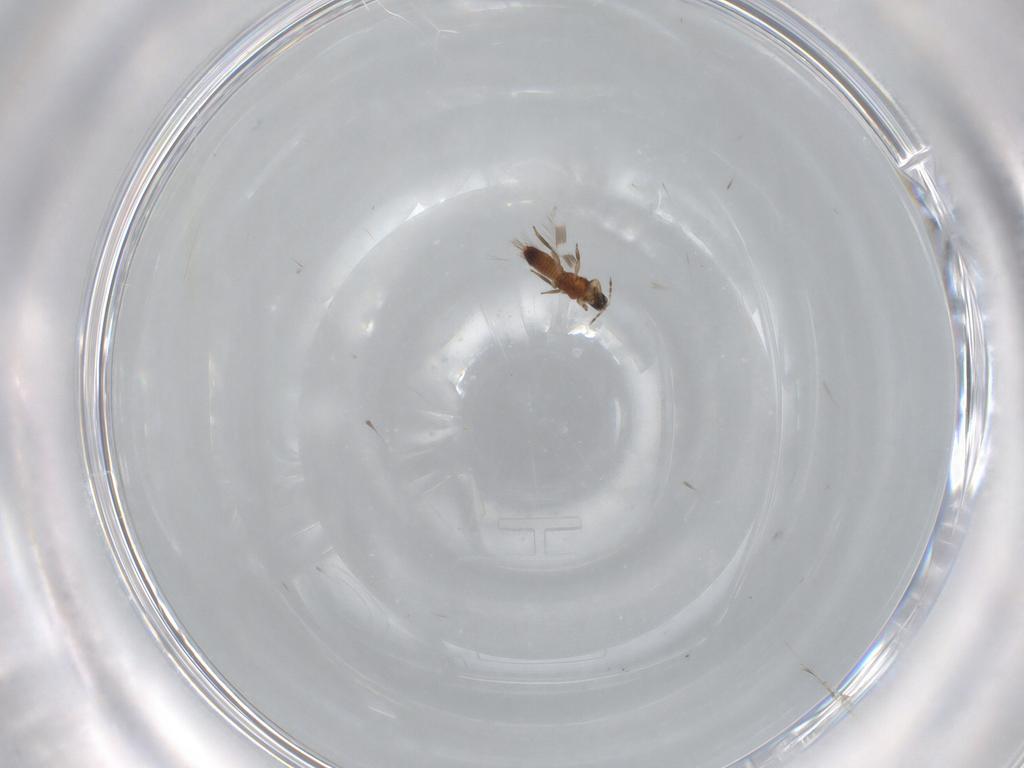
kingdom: Animalia
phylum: Arthropoda
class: Insecta
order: Thysanoptera
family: Aeolothripidae
